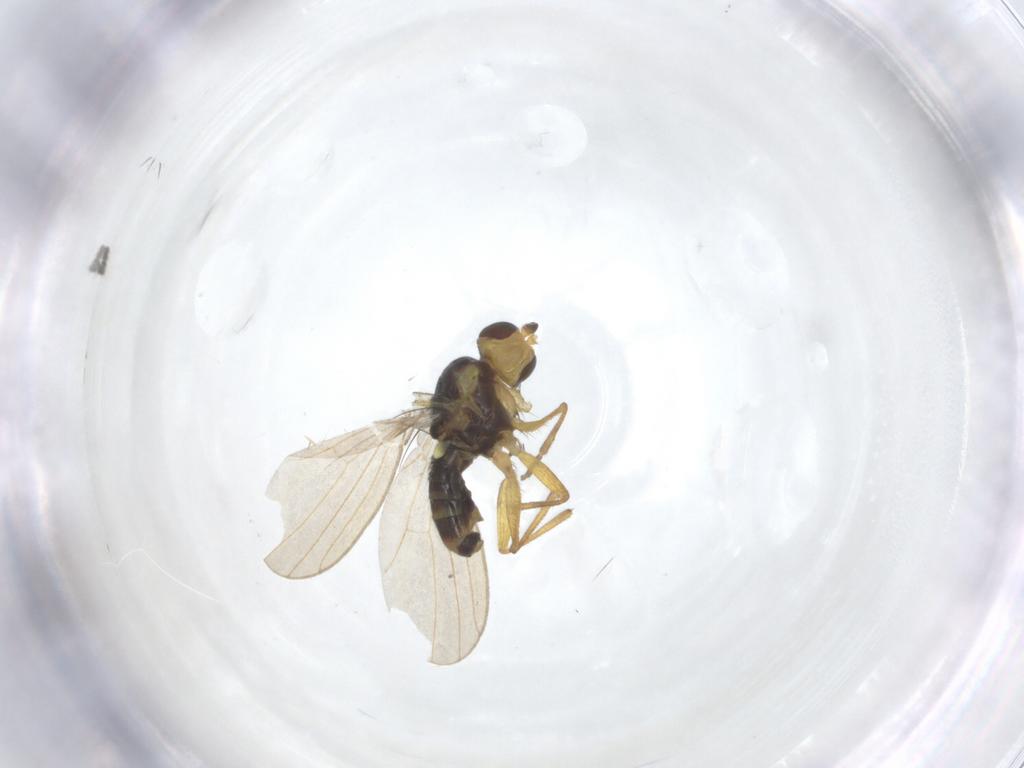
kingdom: Animalia
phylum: Arthropoda
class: Insecta
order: Diptera
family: Agromyzidae
